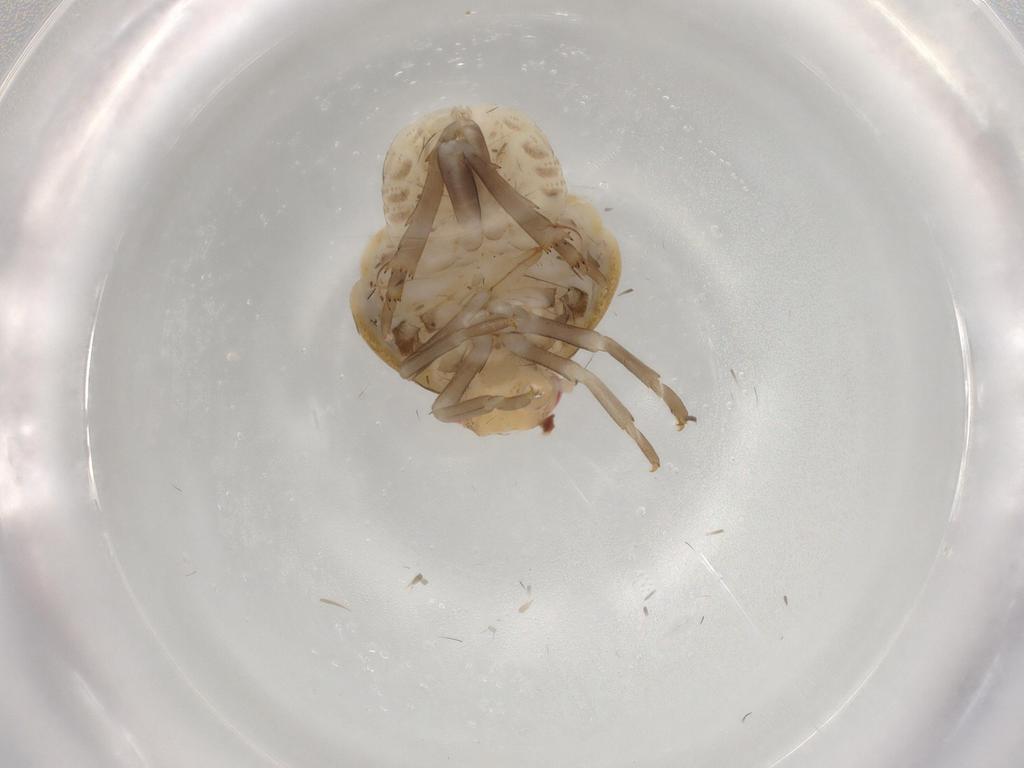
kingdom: Animalia
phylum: Arthropoda
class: Insecta
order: Hemiptera
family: Flatidae
